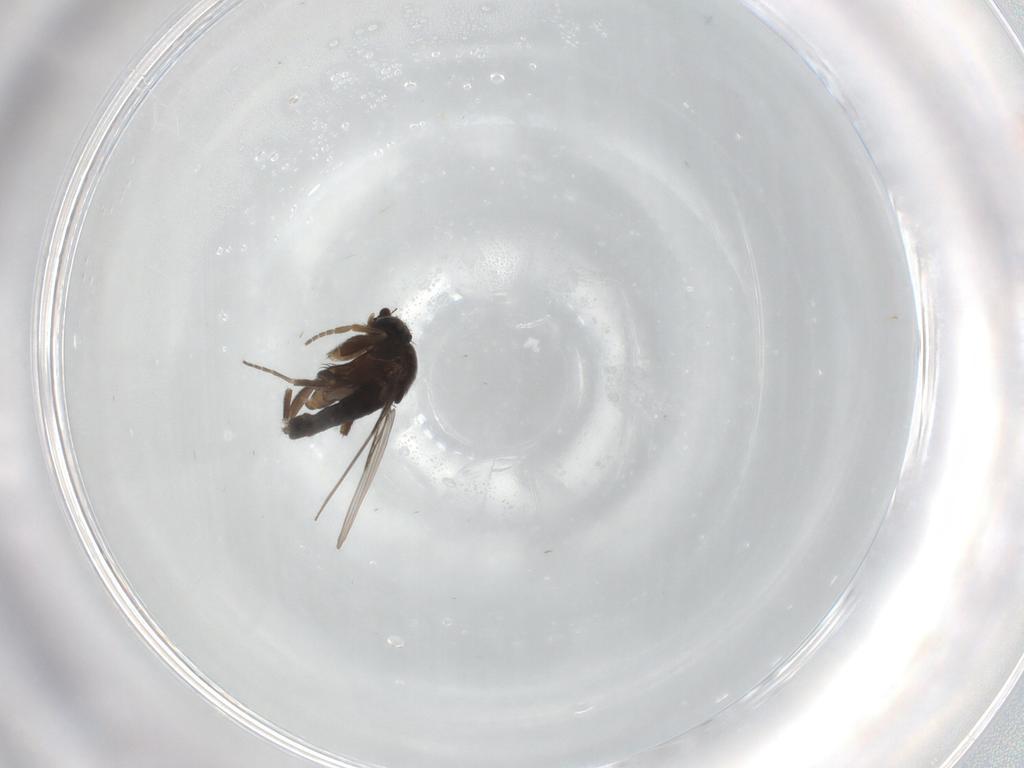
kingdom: Animalia
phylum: Arthropoda
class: Insecta
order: Diptera
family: Phoridae
